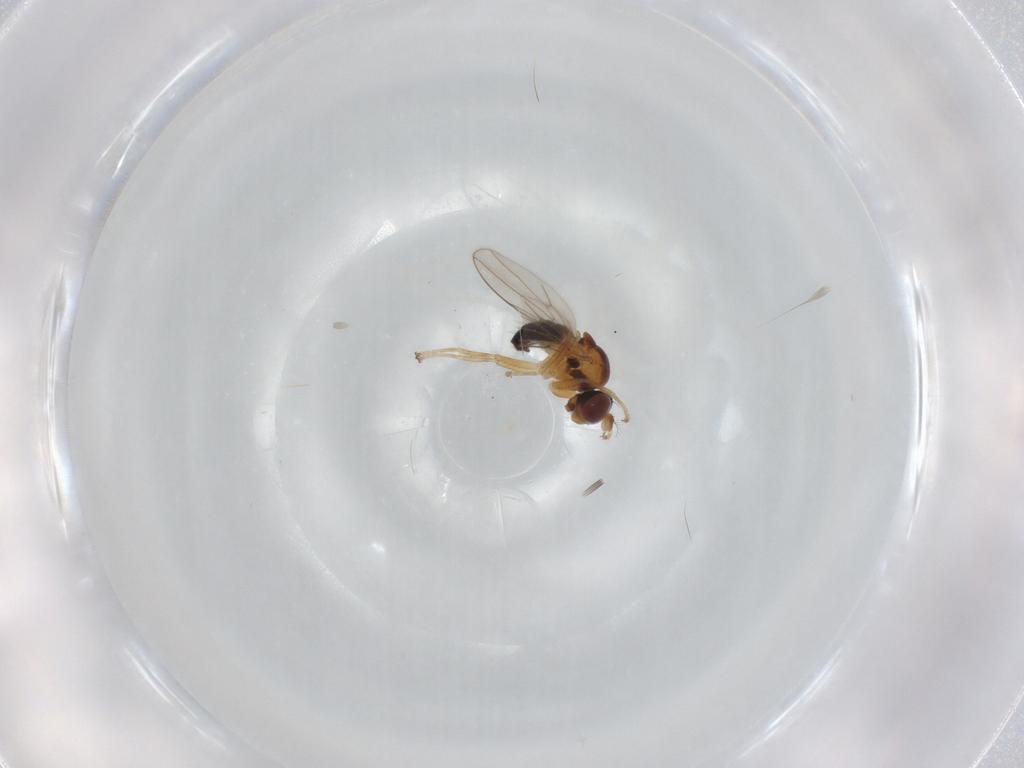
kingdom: Animalia
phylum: Arthropoda
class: Insecta
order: Diptera
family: Ephydridae
